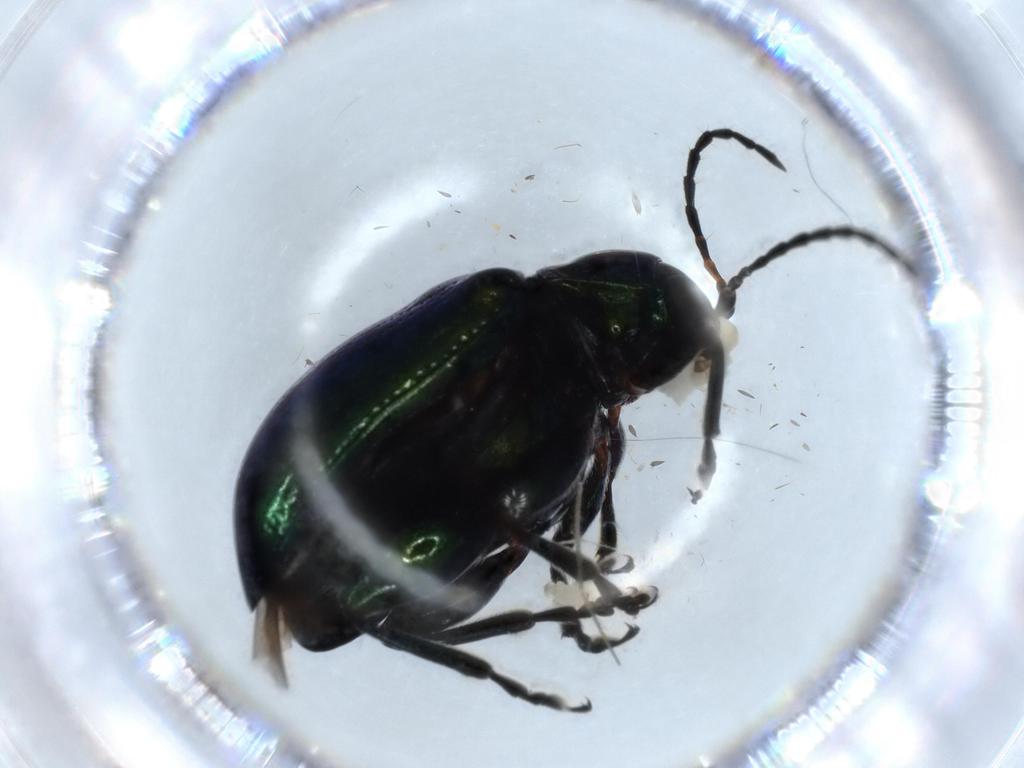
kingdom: Animalia
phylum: Arthropoda
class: Insecta
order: Coleoptera
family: Chrysomelidae
